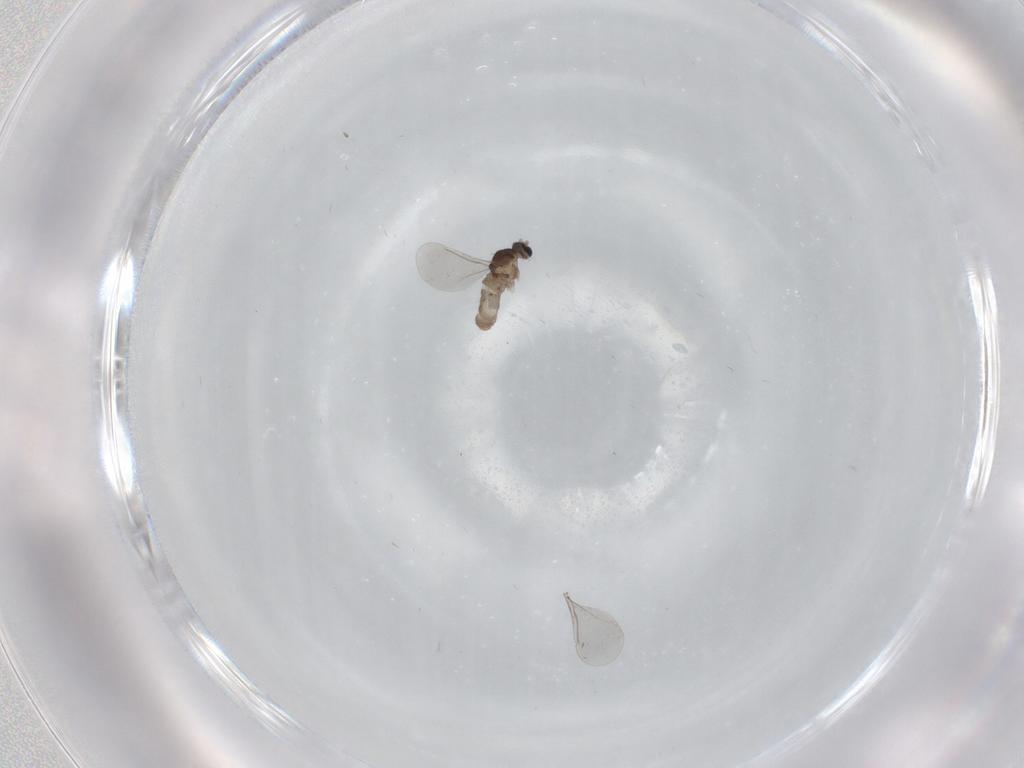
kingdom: Animalia
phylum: Arthropoda
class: Insecta
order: Diptera
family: Cecidomyiidae
